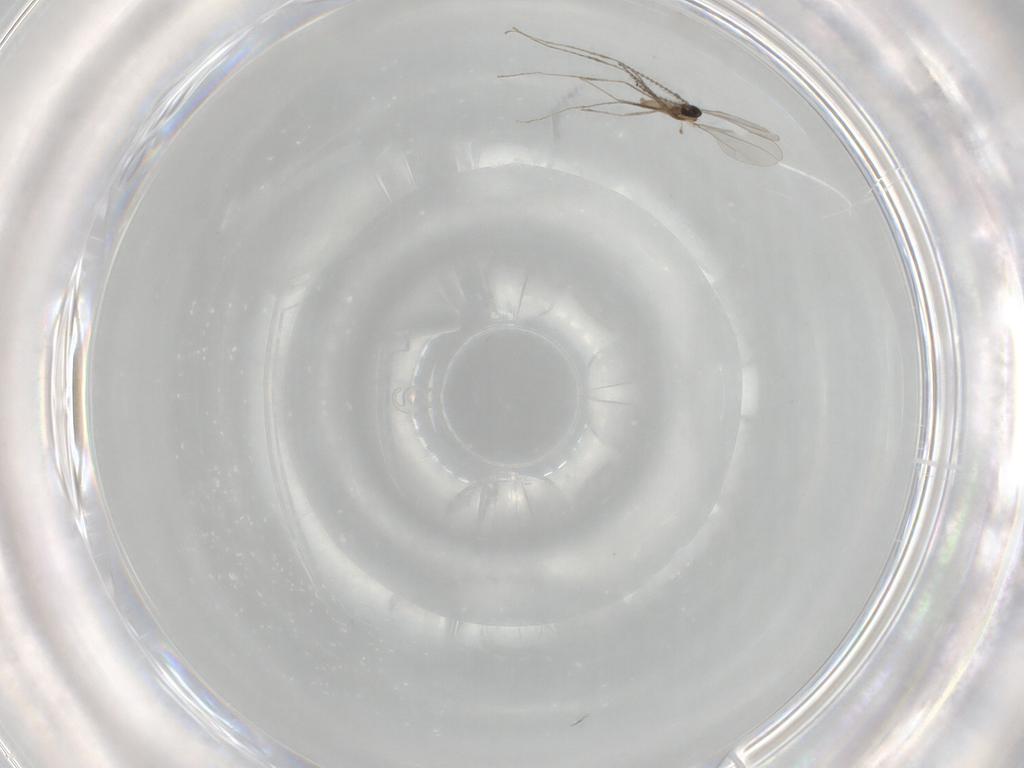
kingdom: Animalia
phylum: Arthropoda
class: Insecta
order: Diptera
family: Cecidomyiidae
